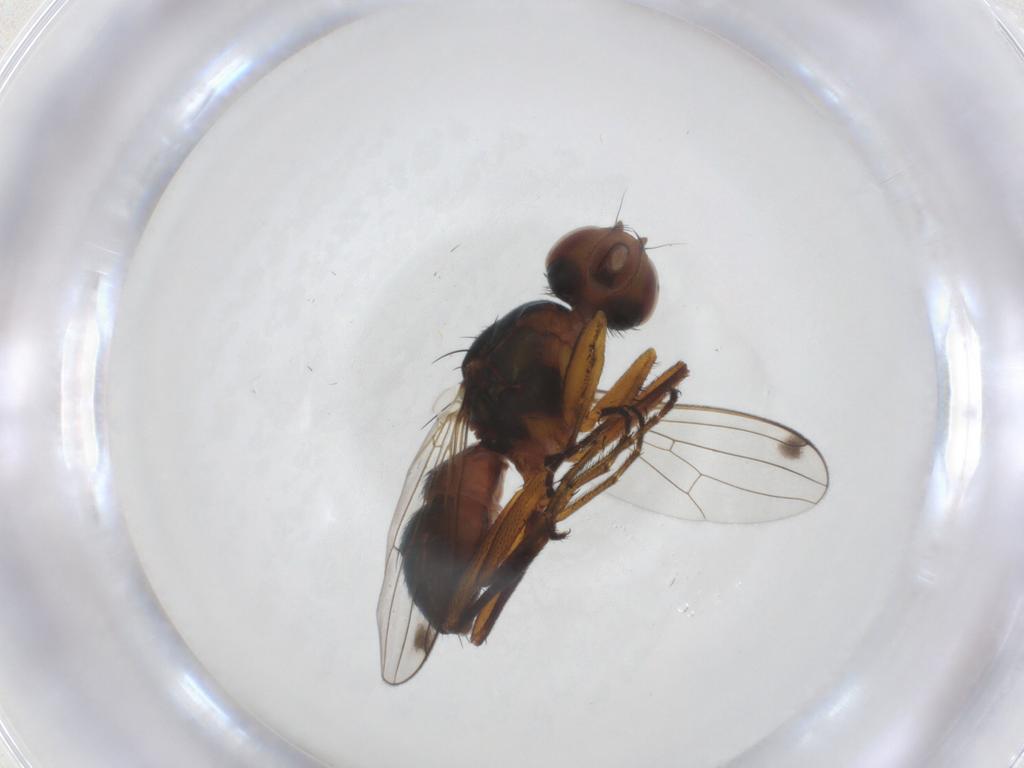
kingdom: Animalia
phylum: Arthropoda
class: Insecta
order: Diptera
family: Sepsidae
